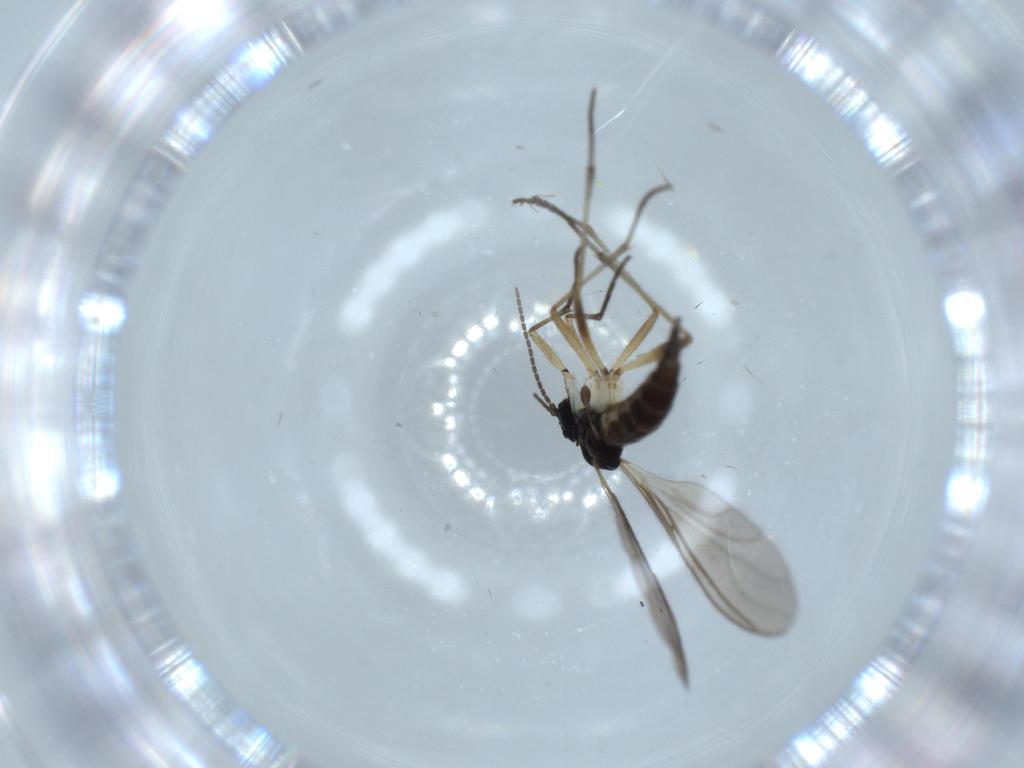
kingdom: Animalia
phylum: Arthropoda
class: Insecta
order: Diptera
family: Sciaridae
